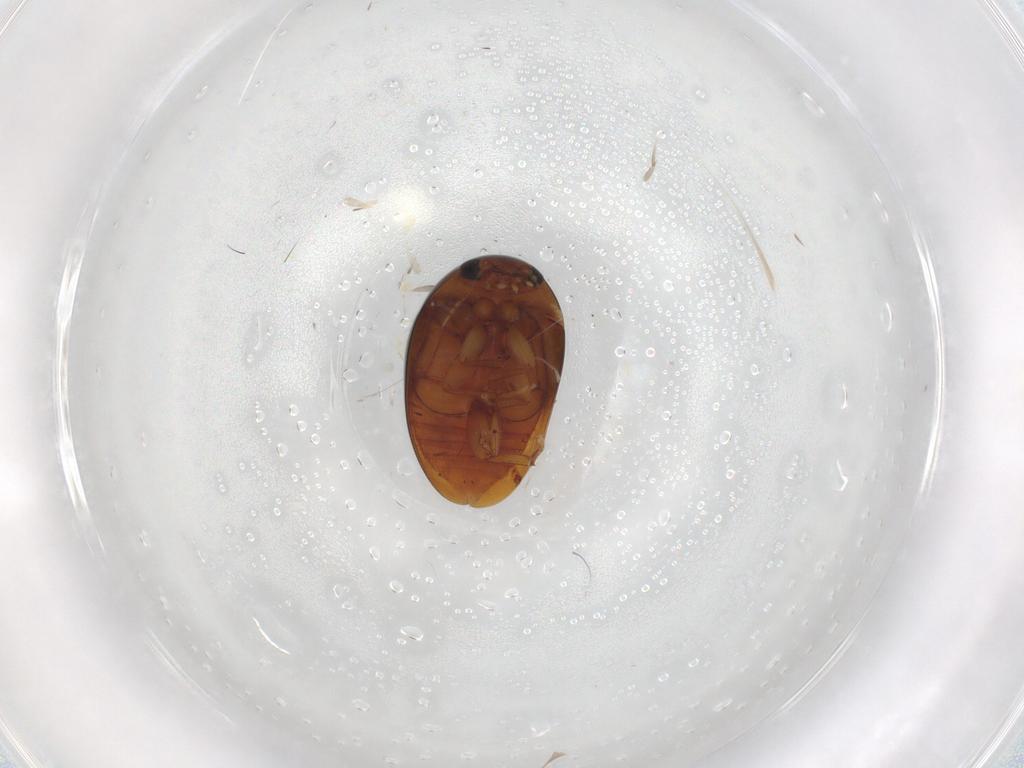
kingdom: Animalia
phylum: Arthropoda
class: Insecta
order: Coleoptera
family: Phalacridae
